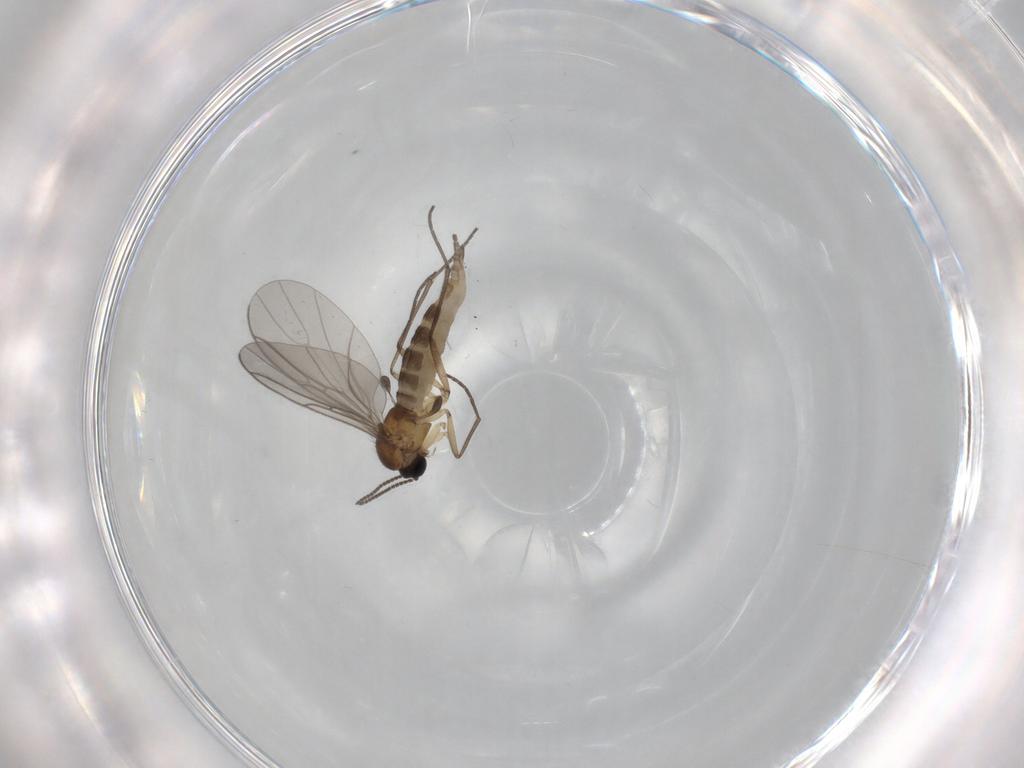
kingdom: Animalia
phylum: Arthropoda
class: Insecta
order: Diptera
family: Sciaridae
